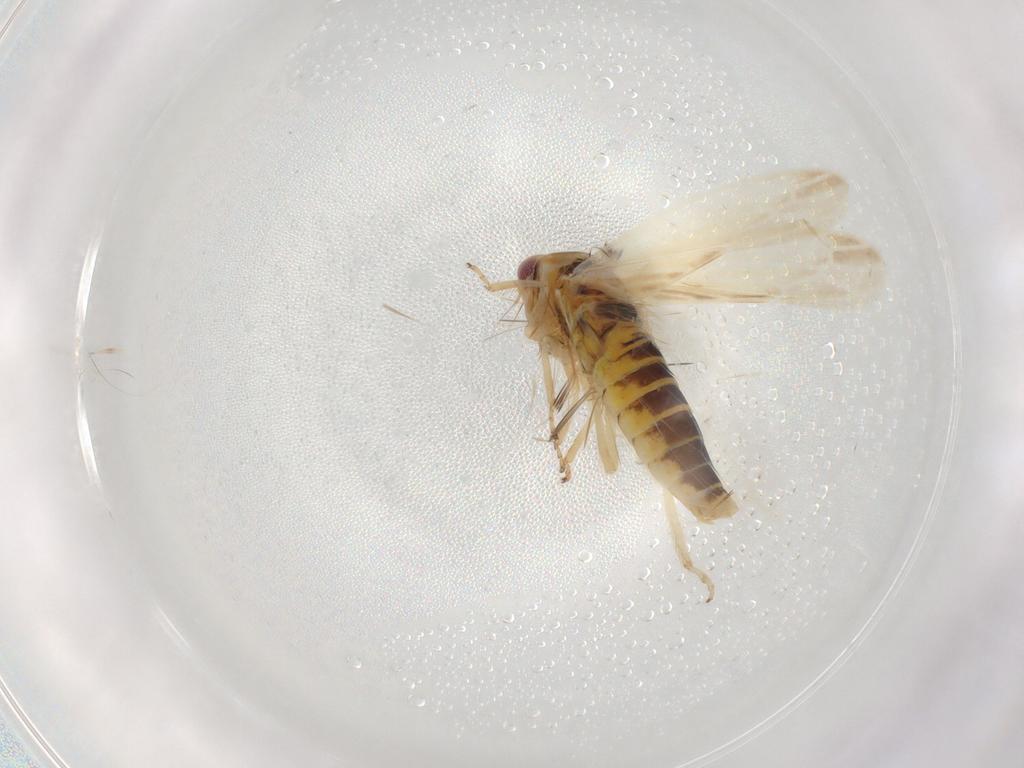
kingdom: Animalia
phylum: Arthropoda
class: Insecta
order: Hemiptera
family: Cicadellidae
